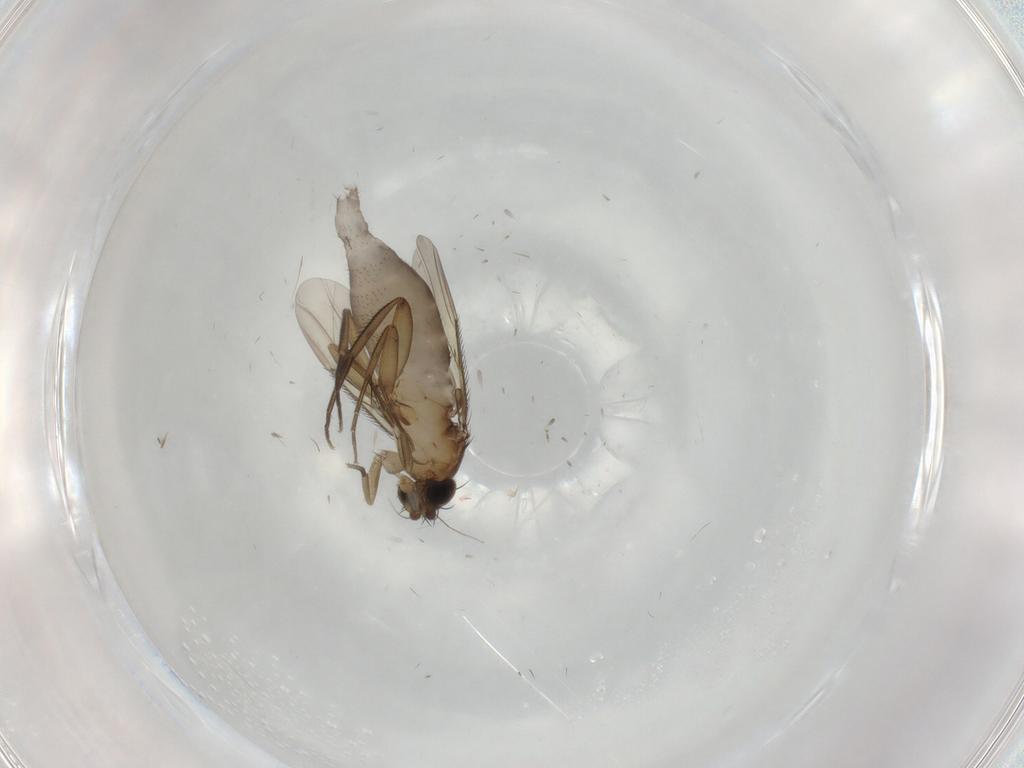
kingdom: Animalia
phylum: Arthropoda
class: Insecta
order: Diptera
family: Phoridae
